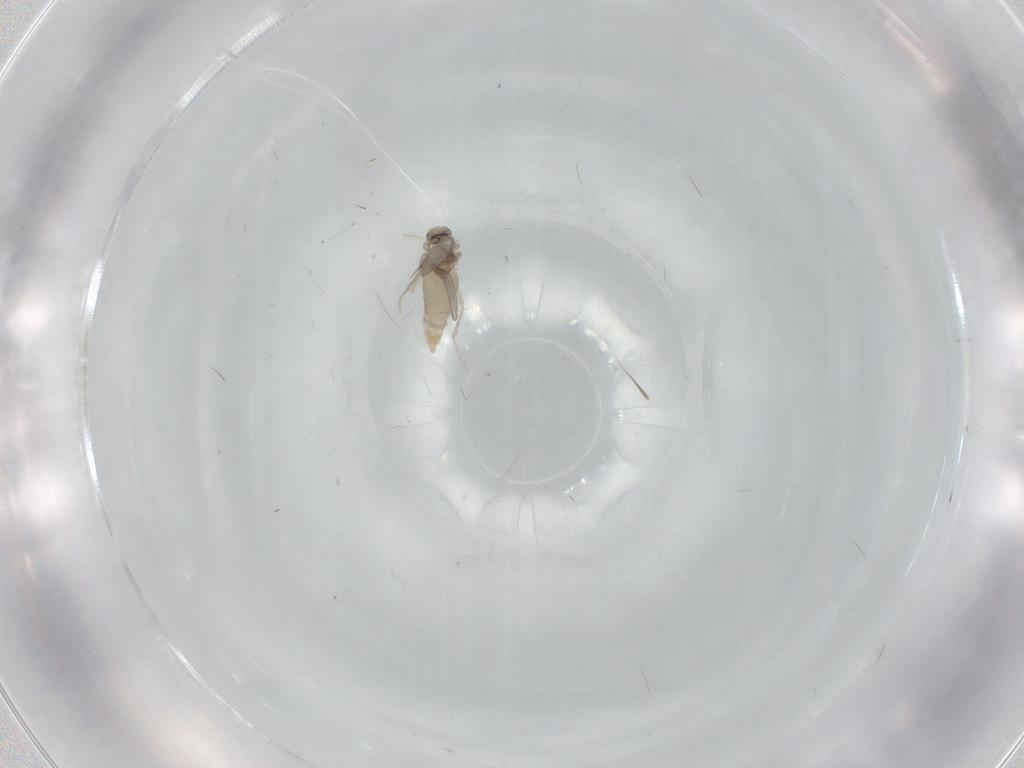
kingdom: Animalia
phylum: Arthropoda
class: Insecta
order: Diptera
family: Cecidomyiidae
